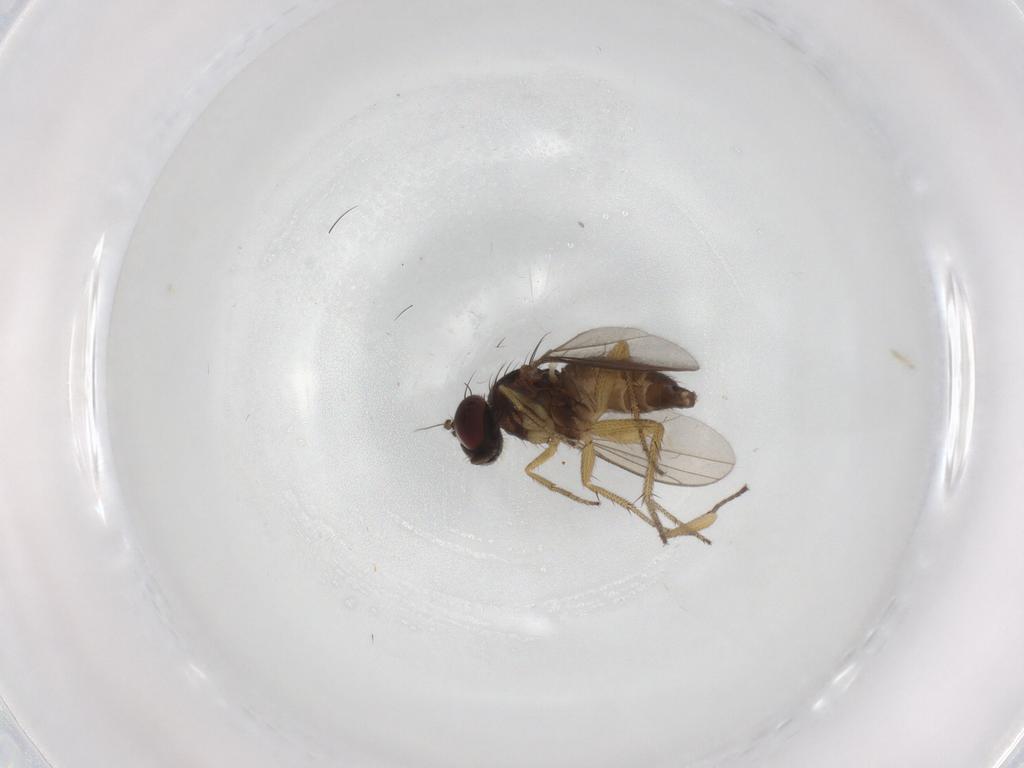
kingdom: Animalia
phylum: Arthropoda
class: Insecta
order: Diptera
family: Dolichopodidae
